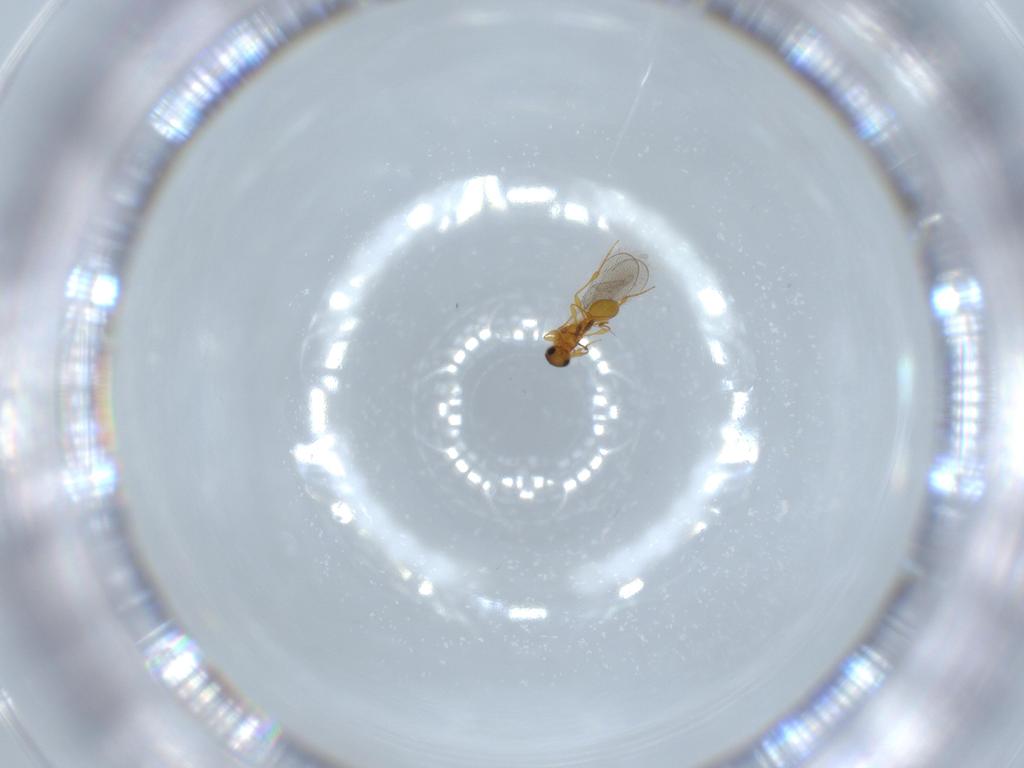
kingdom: Animalia
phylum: Arthropoda
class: Insecta
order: Hymenoptera
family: Platygastridae
